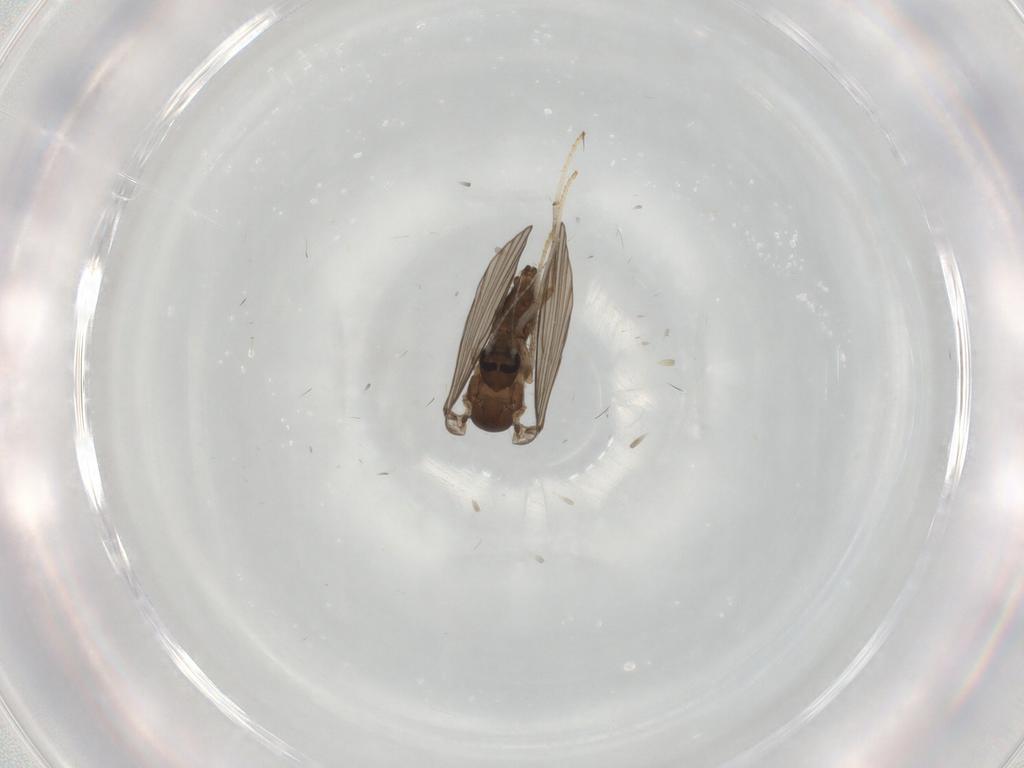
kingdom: Animalia
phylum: Arthropoda
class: Insecta
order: Diptera
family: Psychodidae
